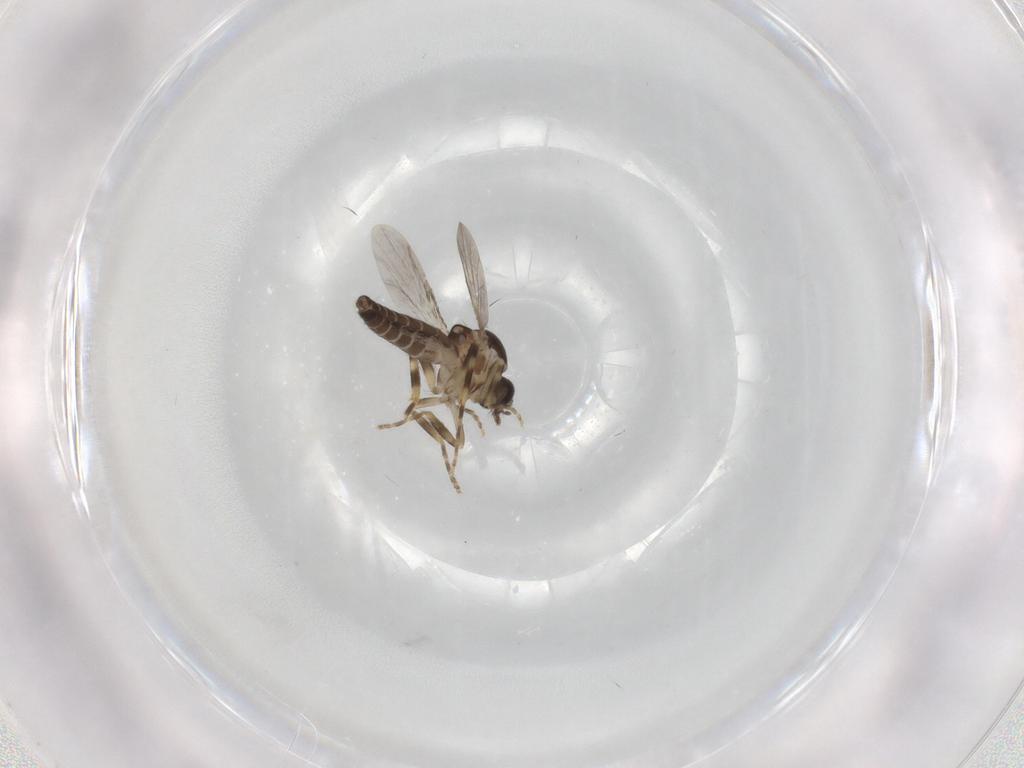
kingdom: Animalia
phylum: Arthropoda
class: Insecta
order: Diptera
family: Ceratopogonidae
